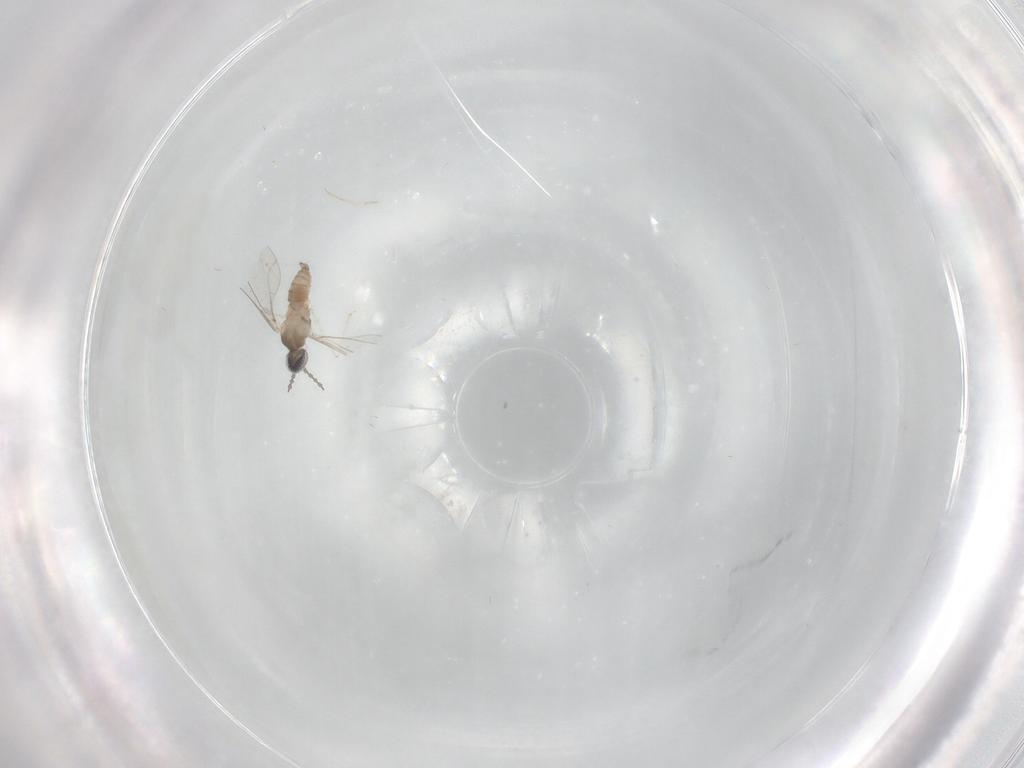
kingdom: Animalia
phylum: Arthropoda
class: Insecta
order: Diptera
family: Cecidomyiidae
